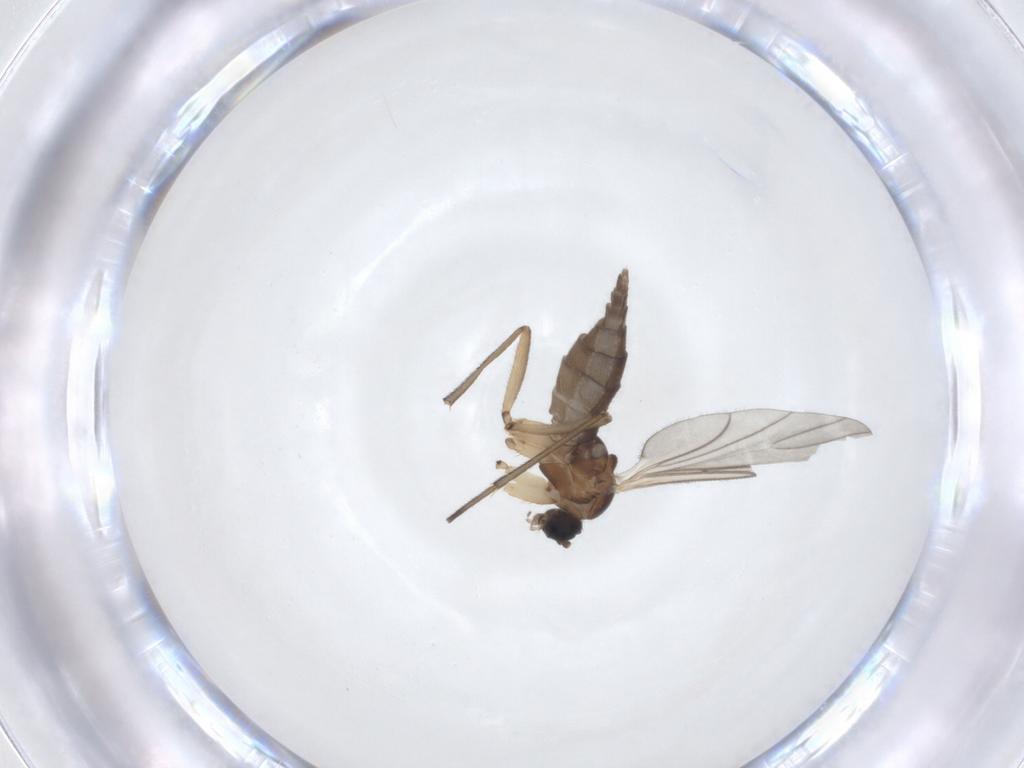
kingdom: Animalia
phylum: Arthropoda
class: Insecta
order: Diptera
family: Sciaridae
